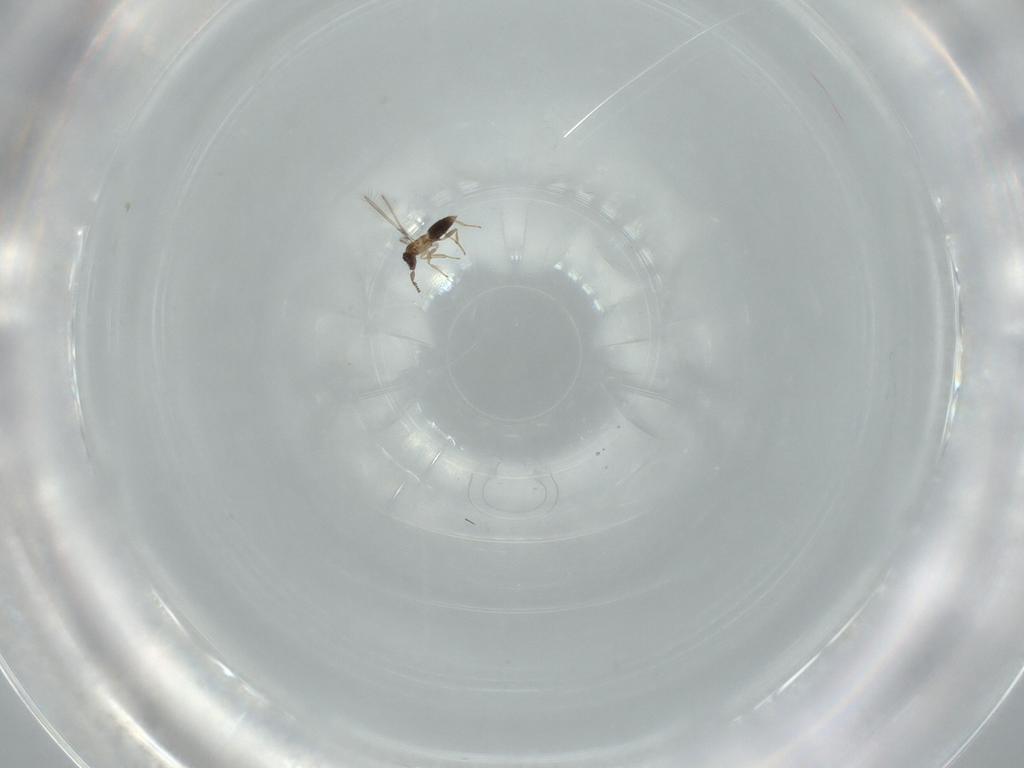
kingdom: Animalia
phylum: Arthropoda
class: Insecta
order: Hymenoptera
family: Mymaridae
